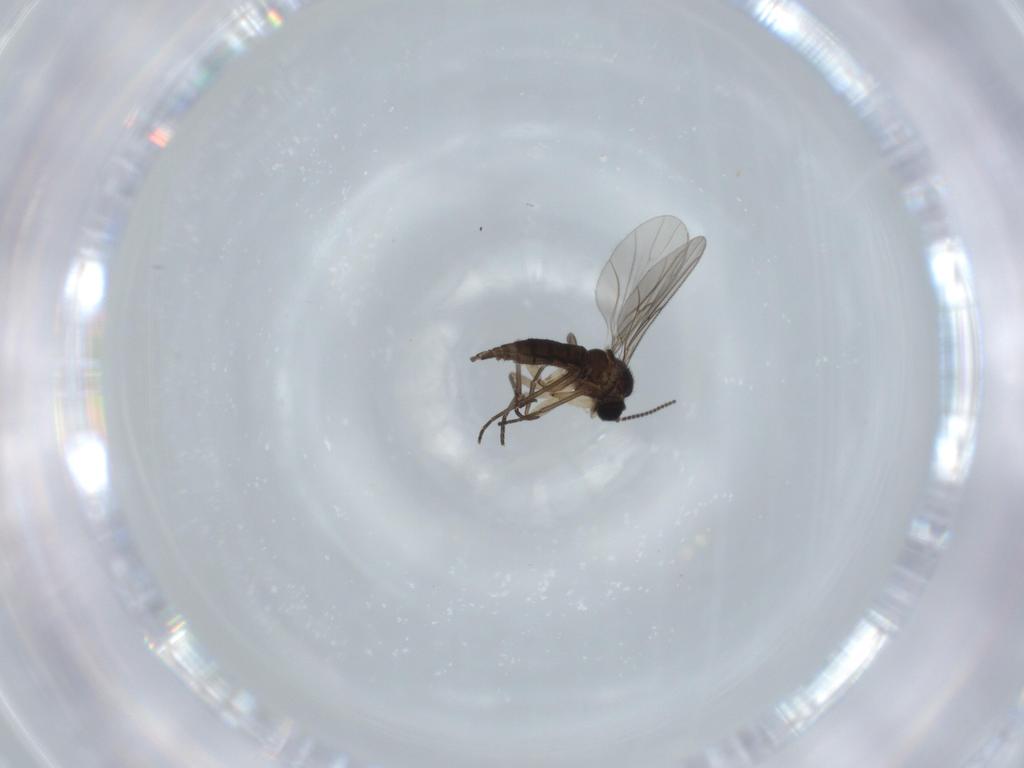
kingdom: Animalia
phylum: Arthropoda
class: Insecta
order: Diptera
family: Sciaridae
